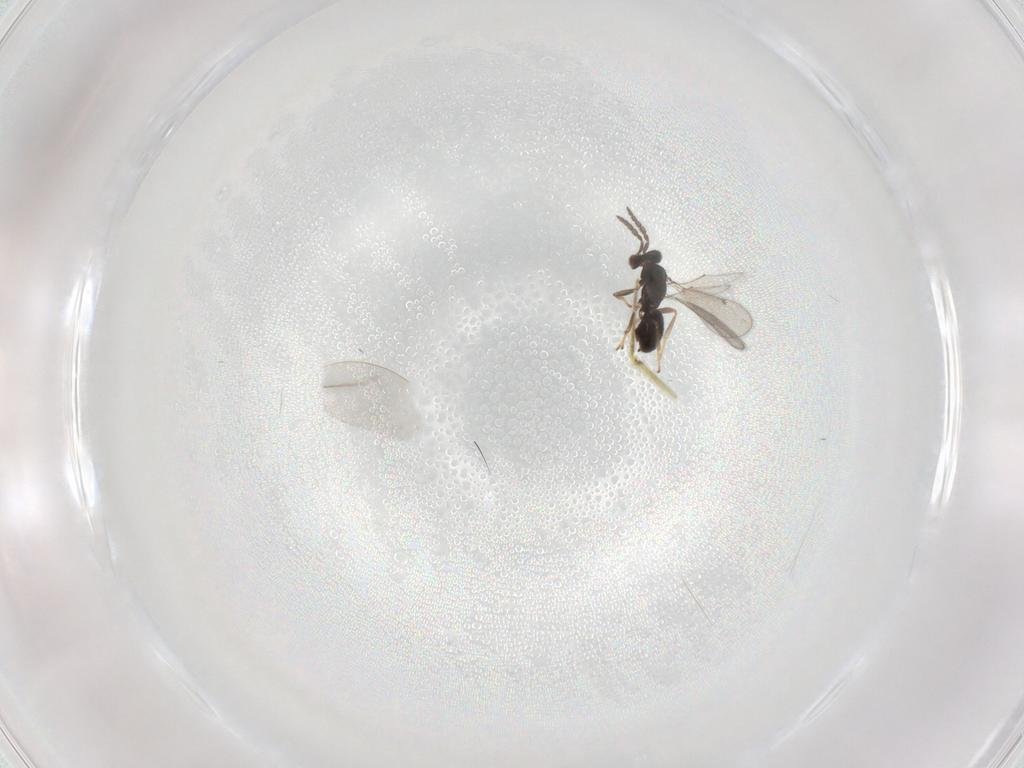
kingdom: Animalia
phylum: Arthropoda
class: Insecta
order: Hymenoptera
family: Eulophidae
